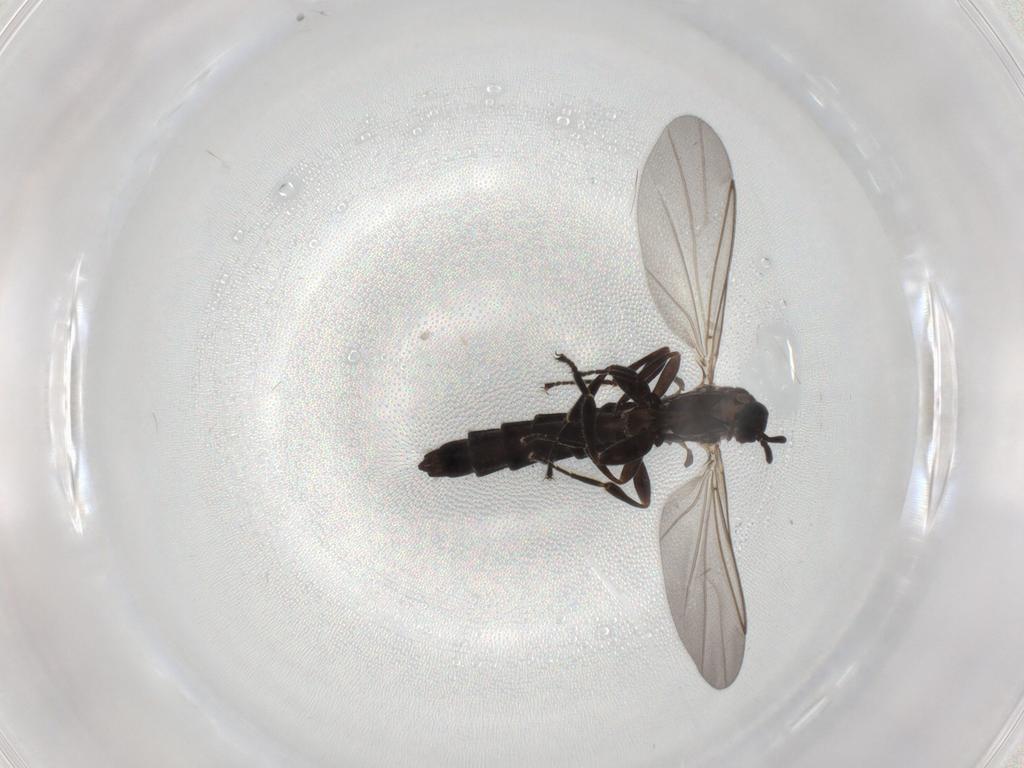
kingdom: Animalia
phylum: Arthropoda
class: Insecta
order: Diptera
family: Scatopsidae
